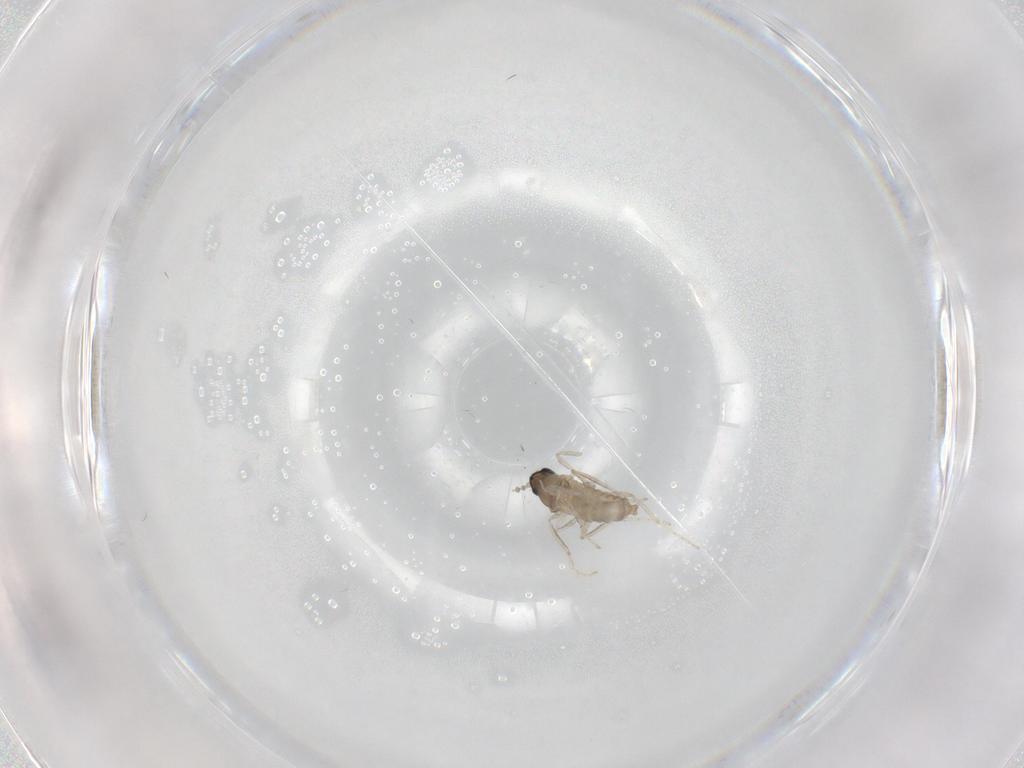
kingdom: Animalia
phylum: Arthropoda
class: Insecta
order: Diptera
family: Cecidomyiidae
